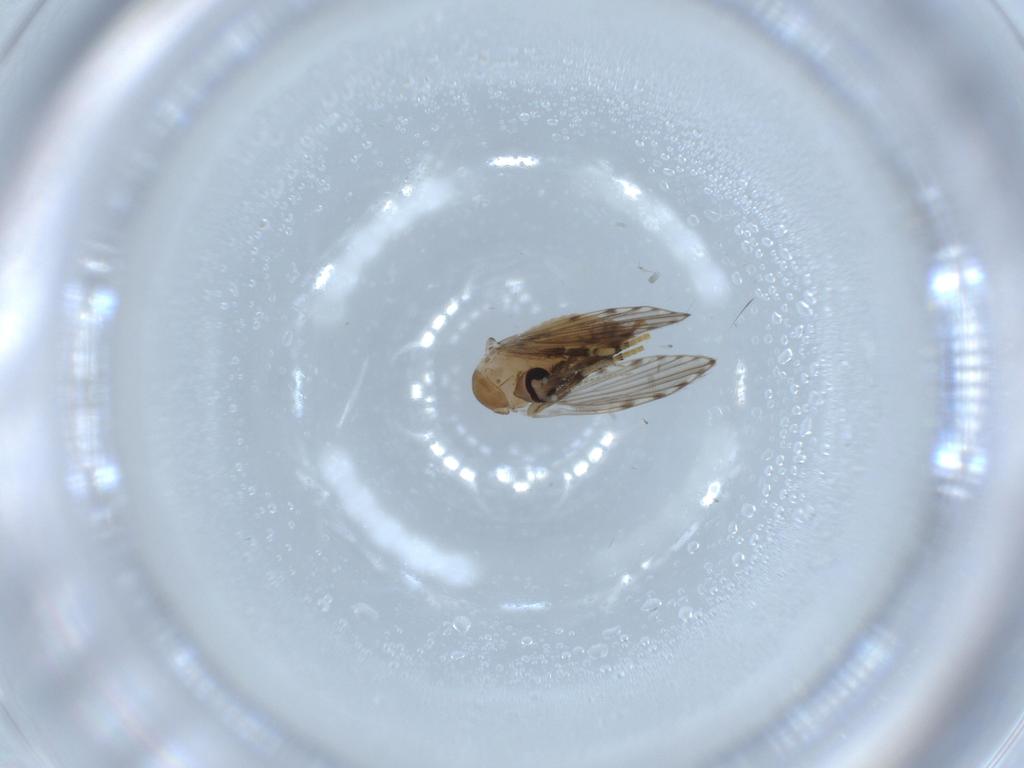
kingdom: Animalia
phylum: Arthropoda
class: Insecta
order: Diptera
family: Psychodidae
